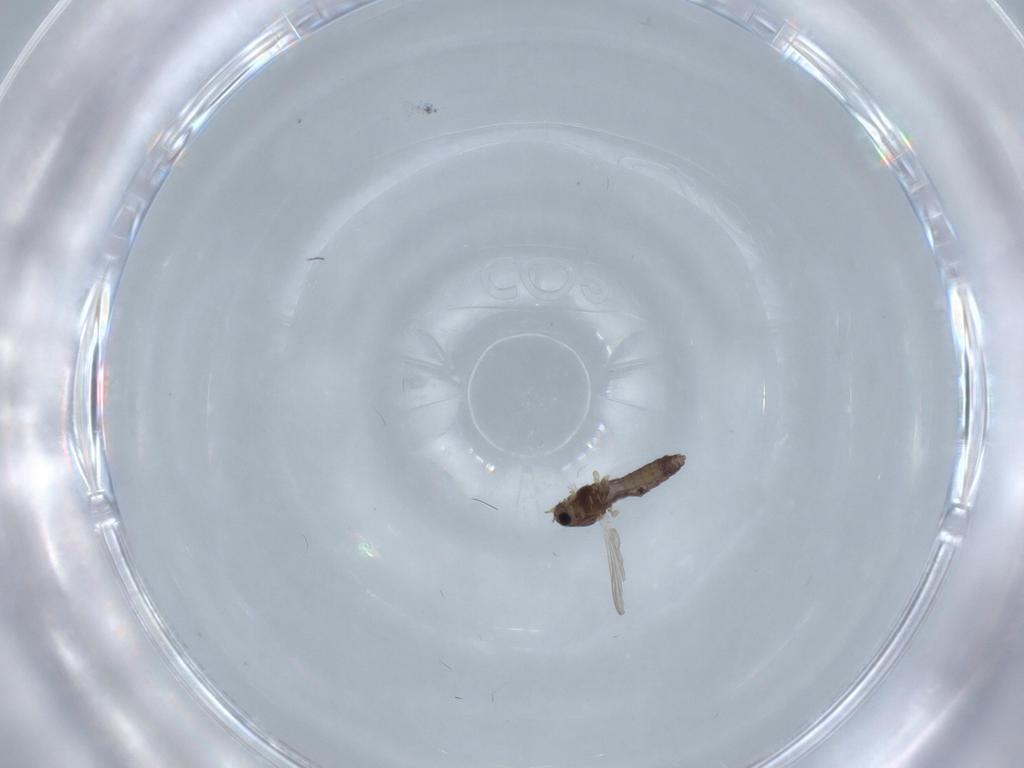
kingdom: Animalia
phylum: Arthropoda
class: Insecta
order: Diptera
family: Chironomidae
